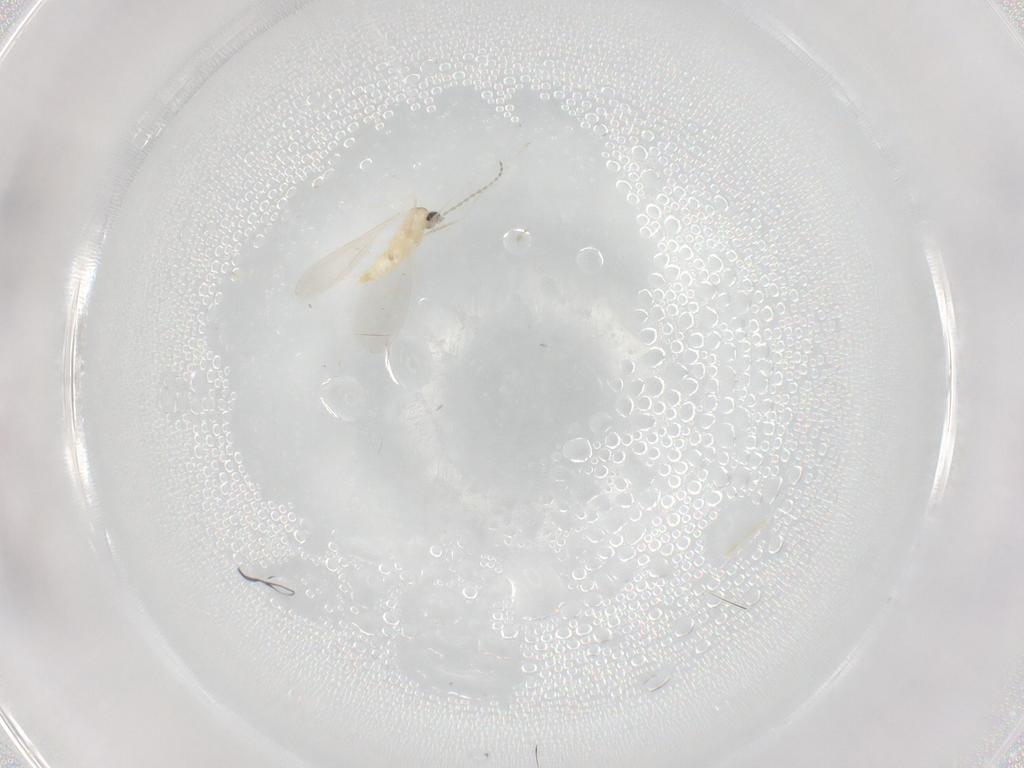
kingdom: Animalia
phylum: Arthropoda
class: Insecta
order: Diptera
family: Cecidomyiidae
